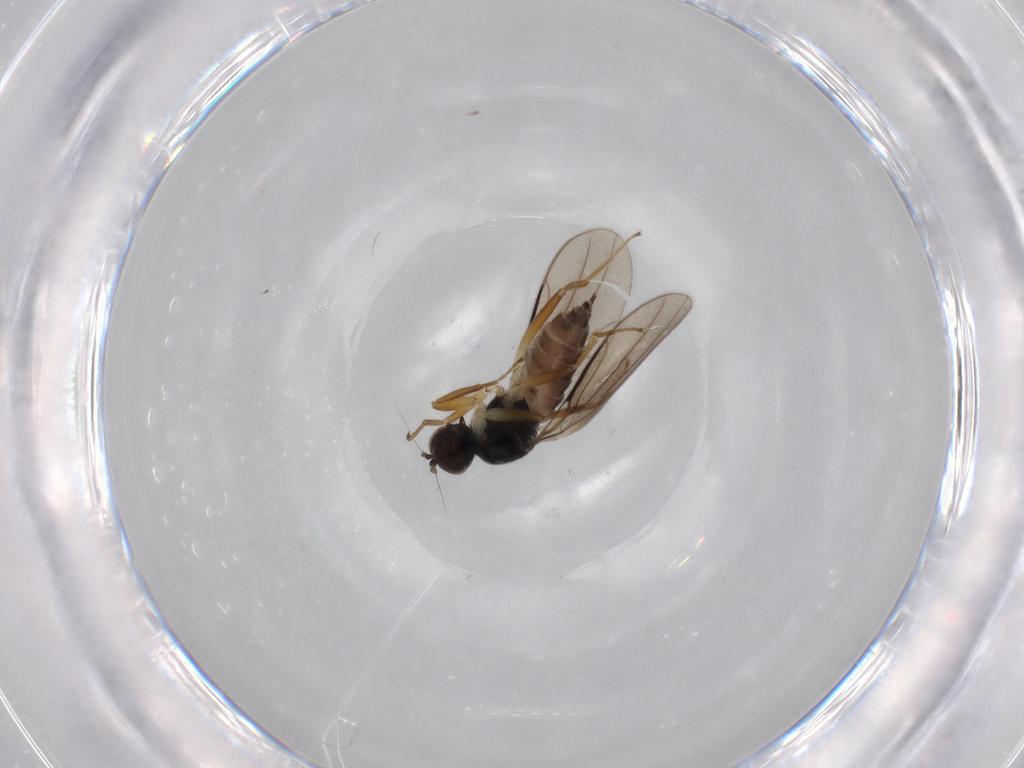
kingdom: Animalia
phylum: Arthropoda
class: Insecta
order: Diptera
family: Hybotidae
